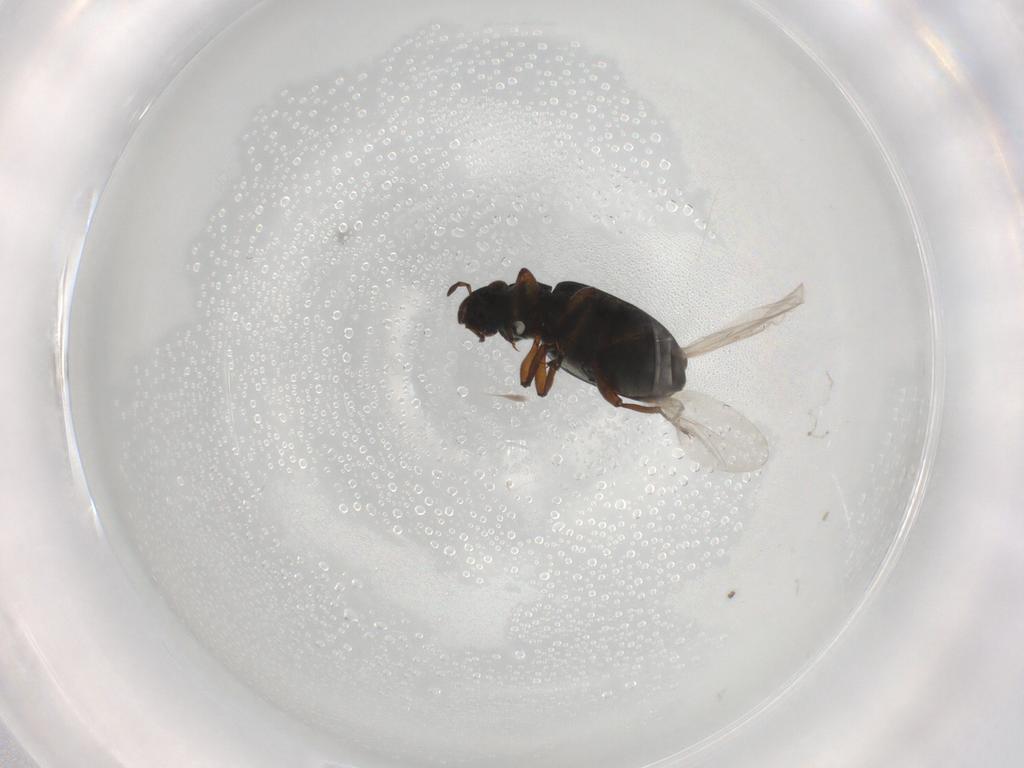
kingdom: Animalia
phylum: Arthropoda
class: Insecta
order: Coleoptera
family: Hydraenidae
